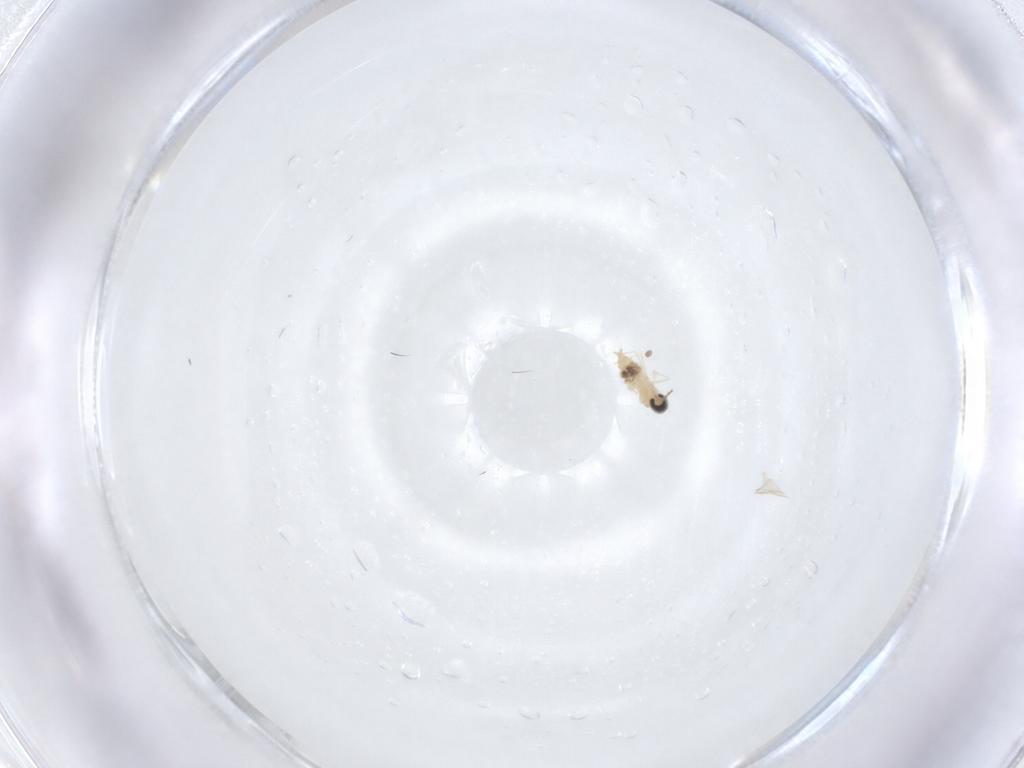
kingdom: Animalia
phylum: Arthropoda
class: Insecta
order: Diptera
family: Cecidomyiidae
